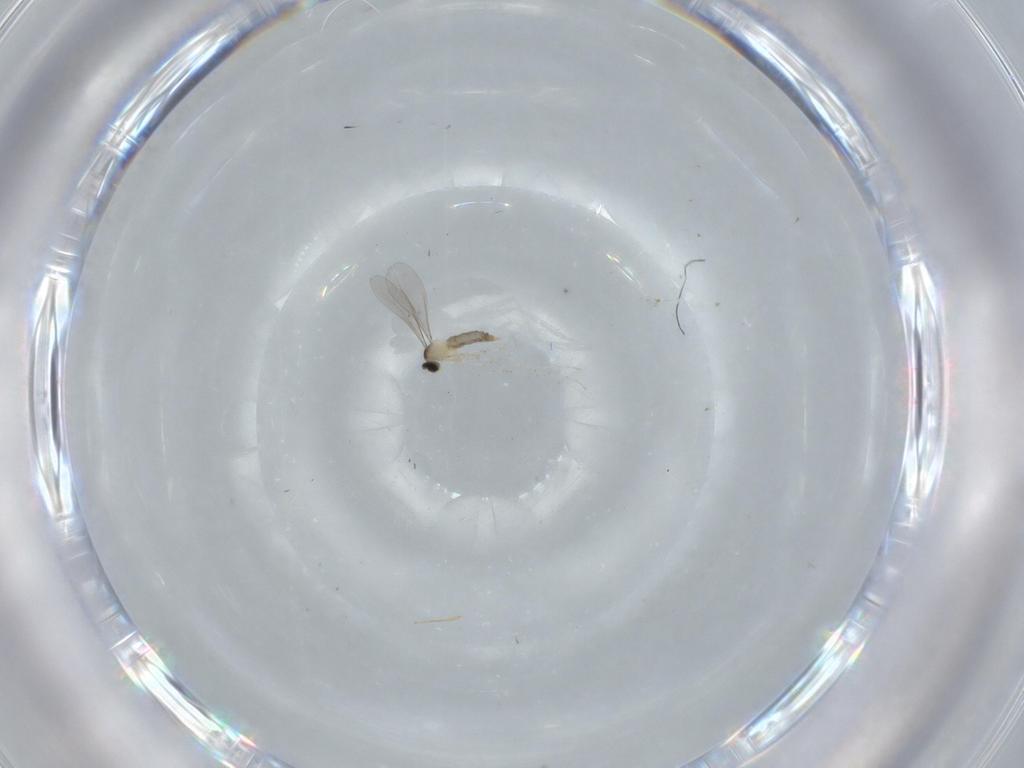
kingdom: Animalia
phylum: Arthropoda
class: Insecta
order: Diptera
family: Cecidomyiidae
